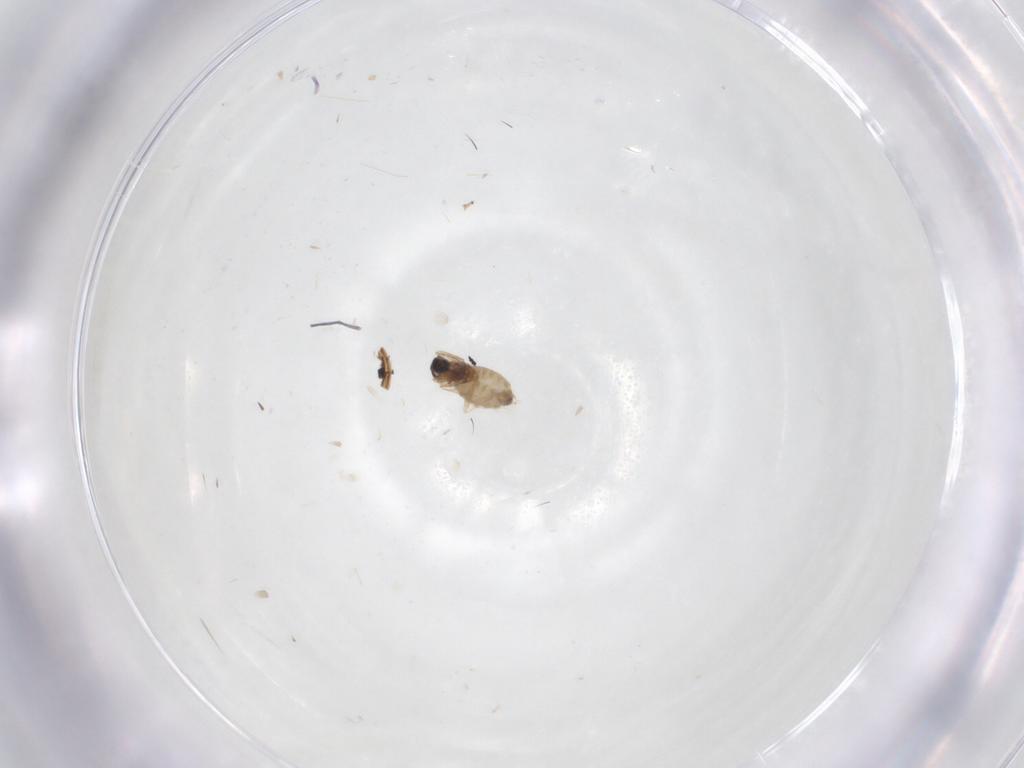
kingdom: Animalia
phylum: Arthropoda
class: Insecta
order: Diptera
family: Cecidomyiidae
